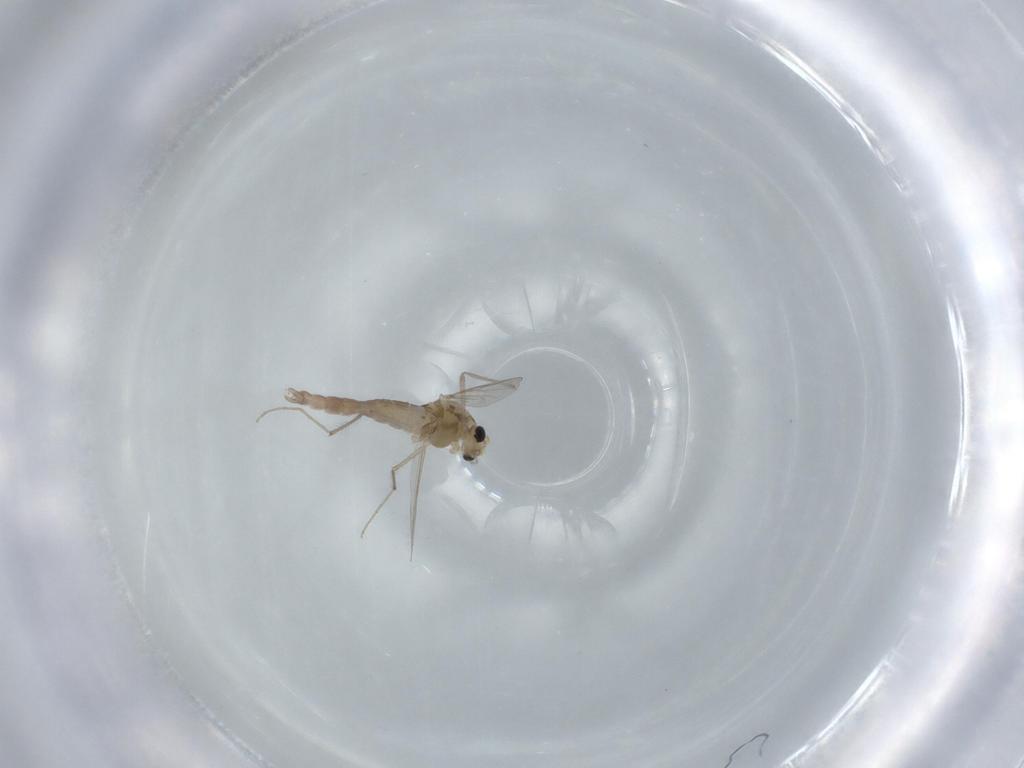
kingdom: Animalia
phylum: Arthropoda
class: Insecta
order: Diptera
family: Chironomidae
